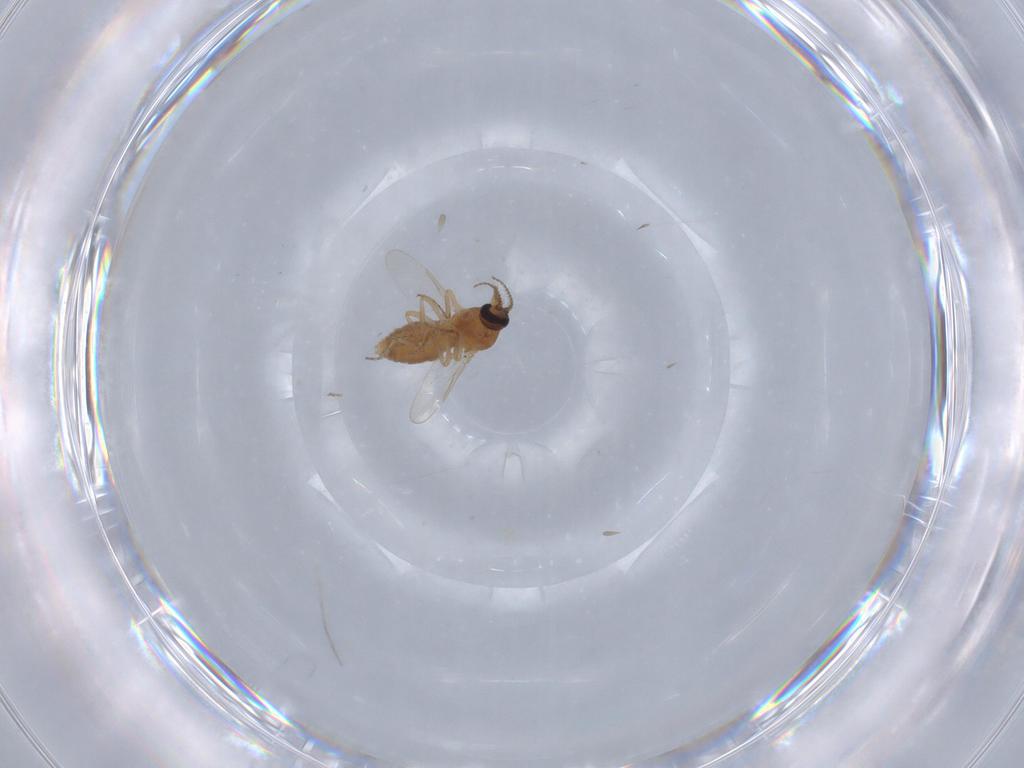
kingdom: Animalia
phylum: Arthropoda
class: Insecta
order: Diptera
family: Ceratopogonidae
